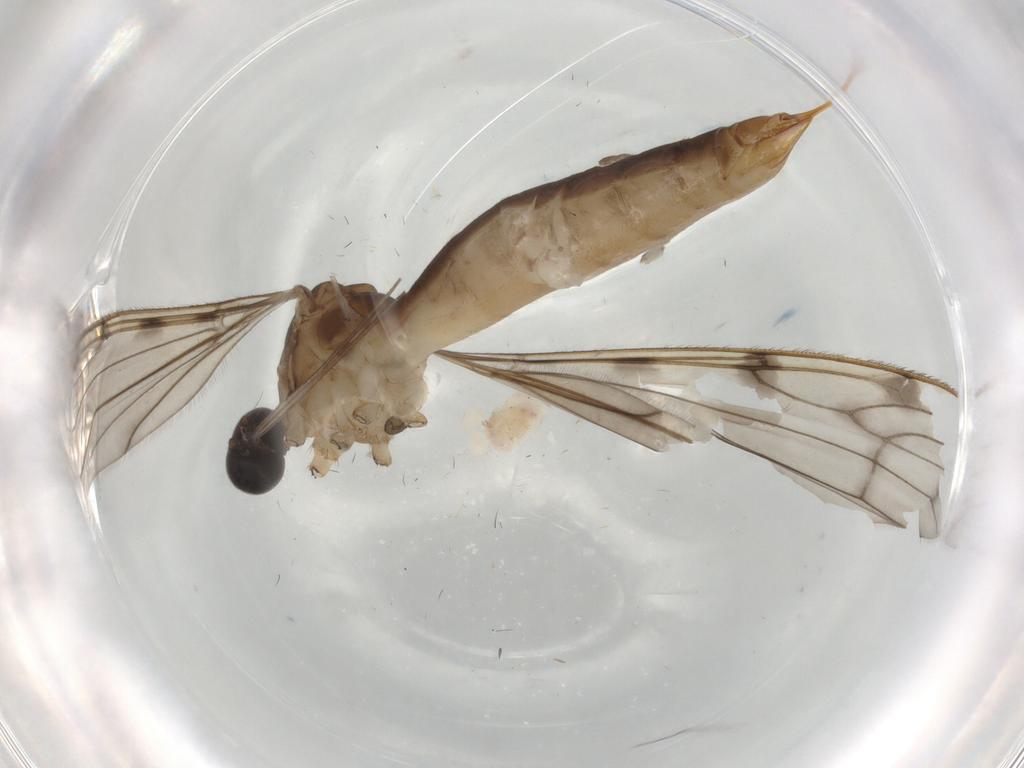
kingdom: Animalia
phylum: Arthropoda
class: Insecta
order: Diptera
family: Limoniidae
